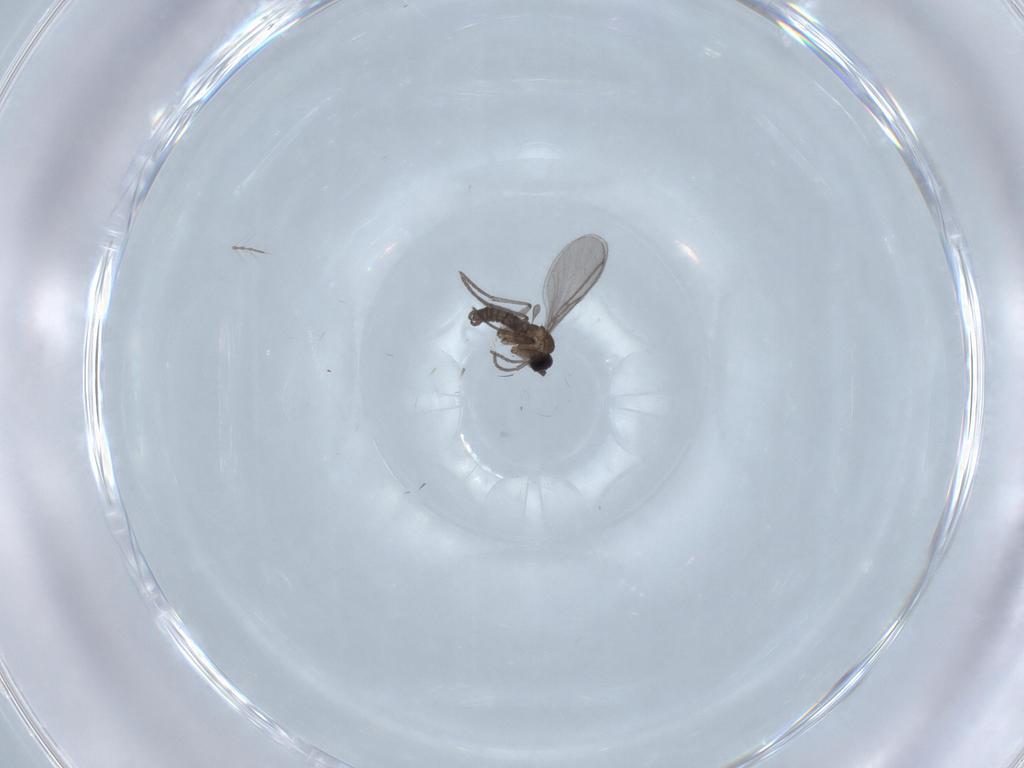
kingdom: Animalia
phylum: Arthropoda
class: Insecta
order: Diptera
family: Chironomidae
